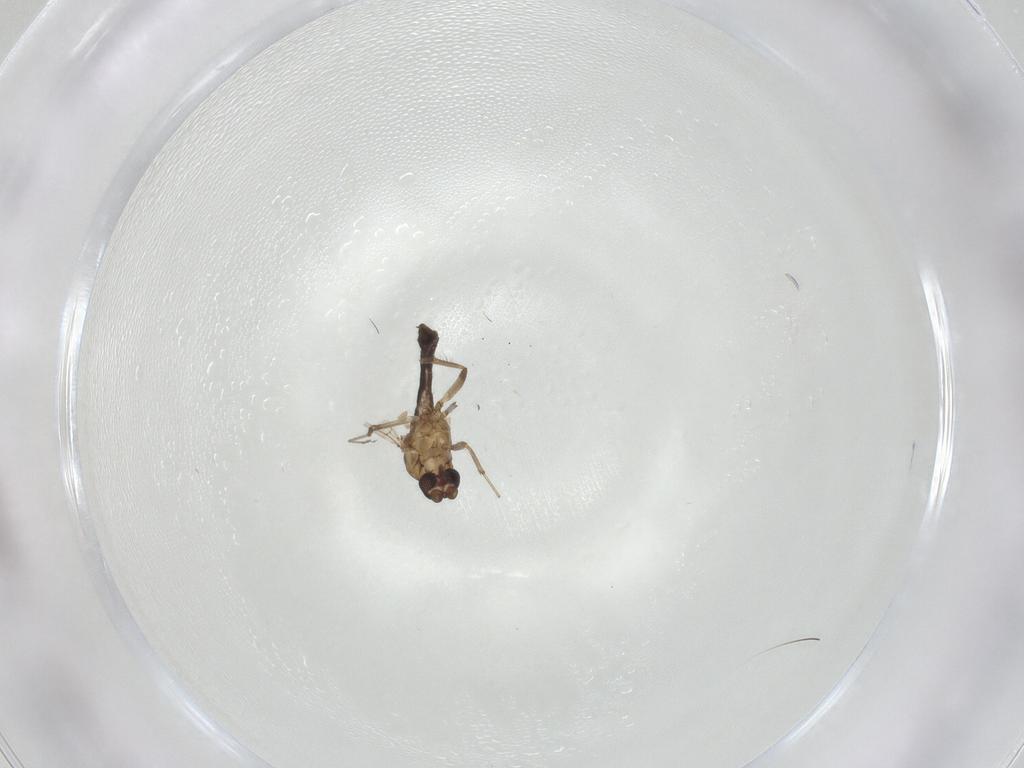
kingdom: Animalia
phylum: Arthropoda
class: Insecta
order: Diptera
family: Ceratopogonidae
